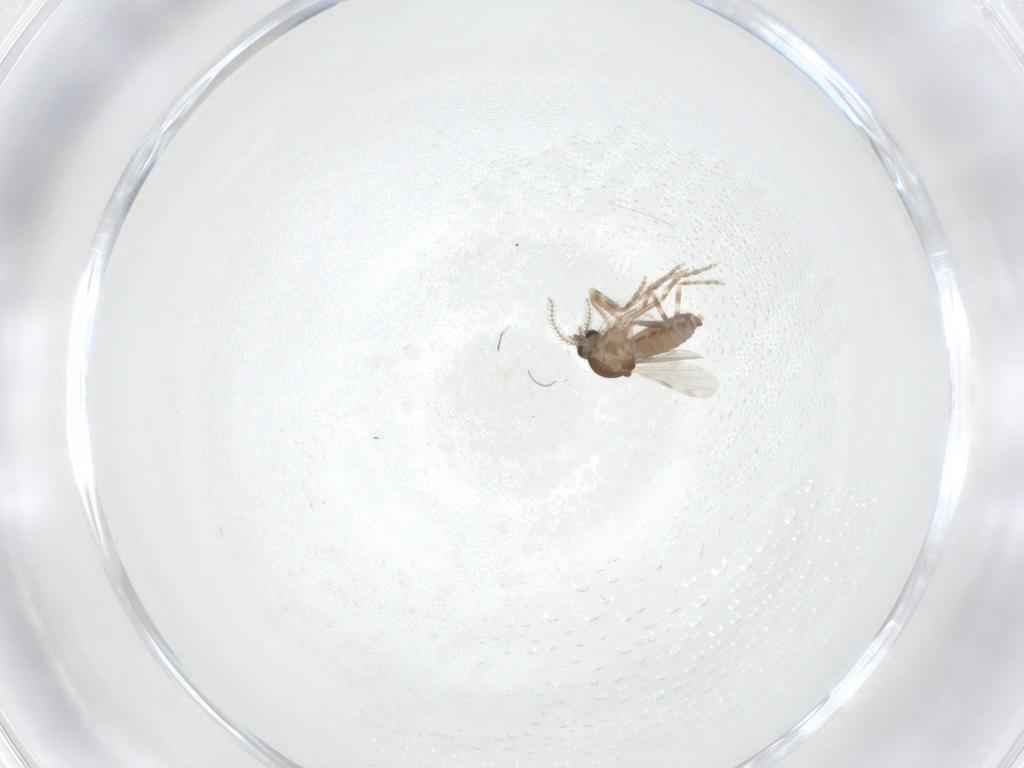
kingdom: Animalia
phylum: Arthropoda
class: Insecta
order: Diptera
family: Ceratopogonidae
